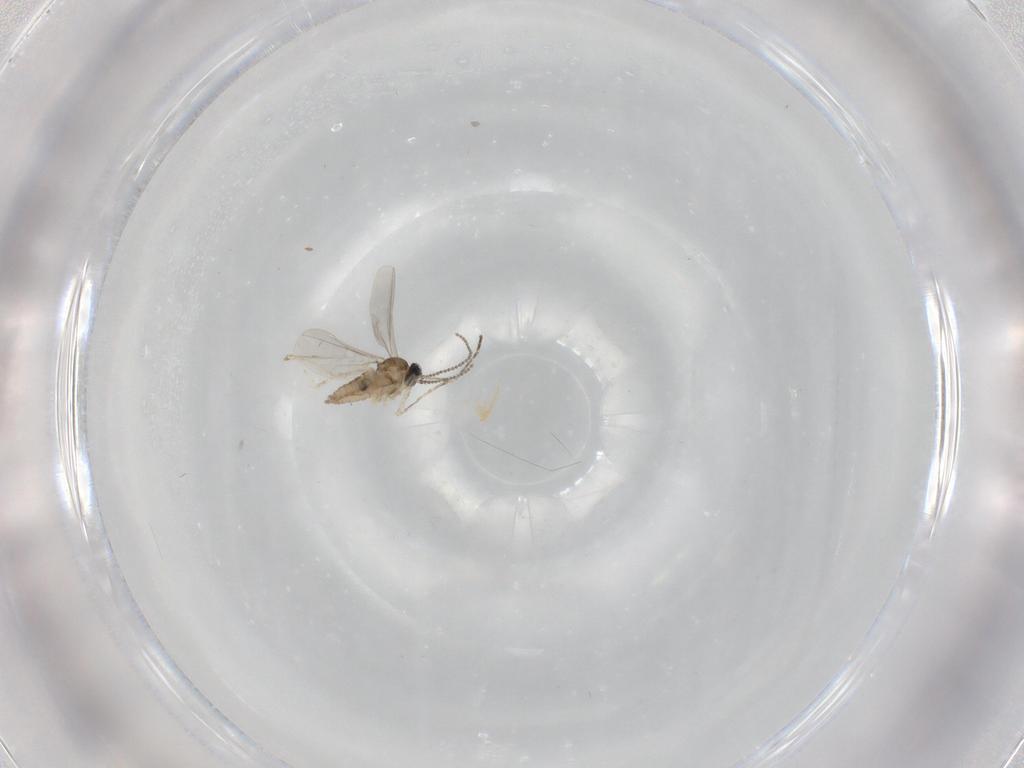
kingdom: Animalia
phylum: Arthropoda
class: Insecta
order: Diptera
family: Cecidomyiidae
